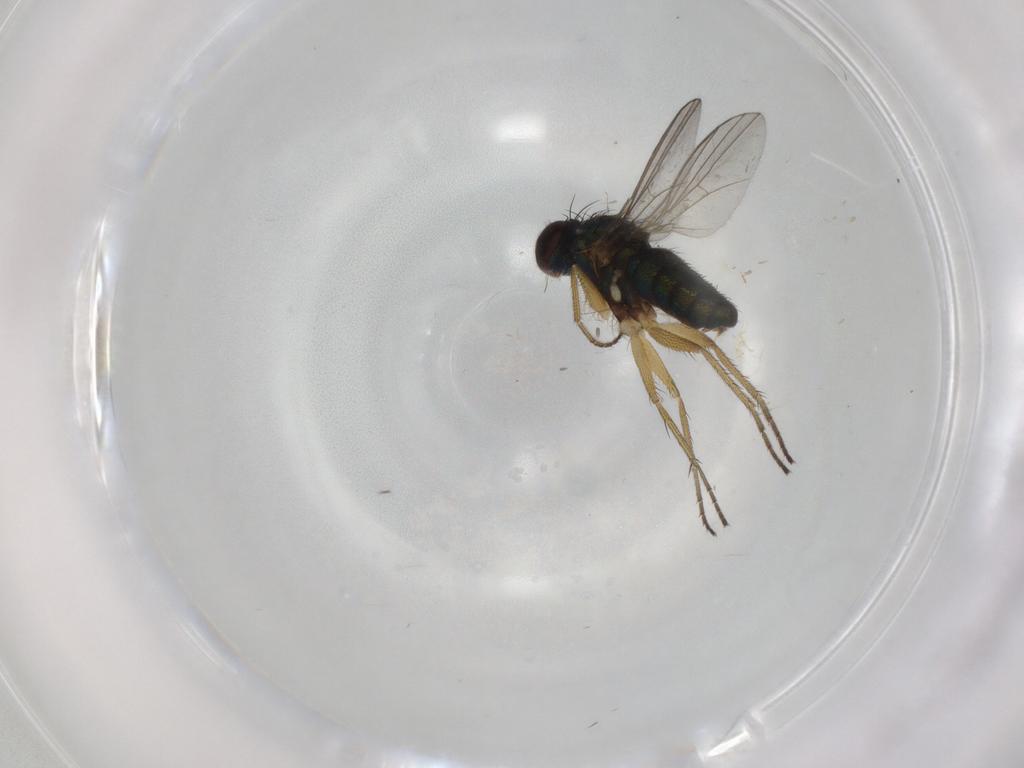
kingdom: Animalia
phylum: Arthropoda
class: Insecta
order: Diptera
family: Dolichopodidae
